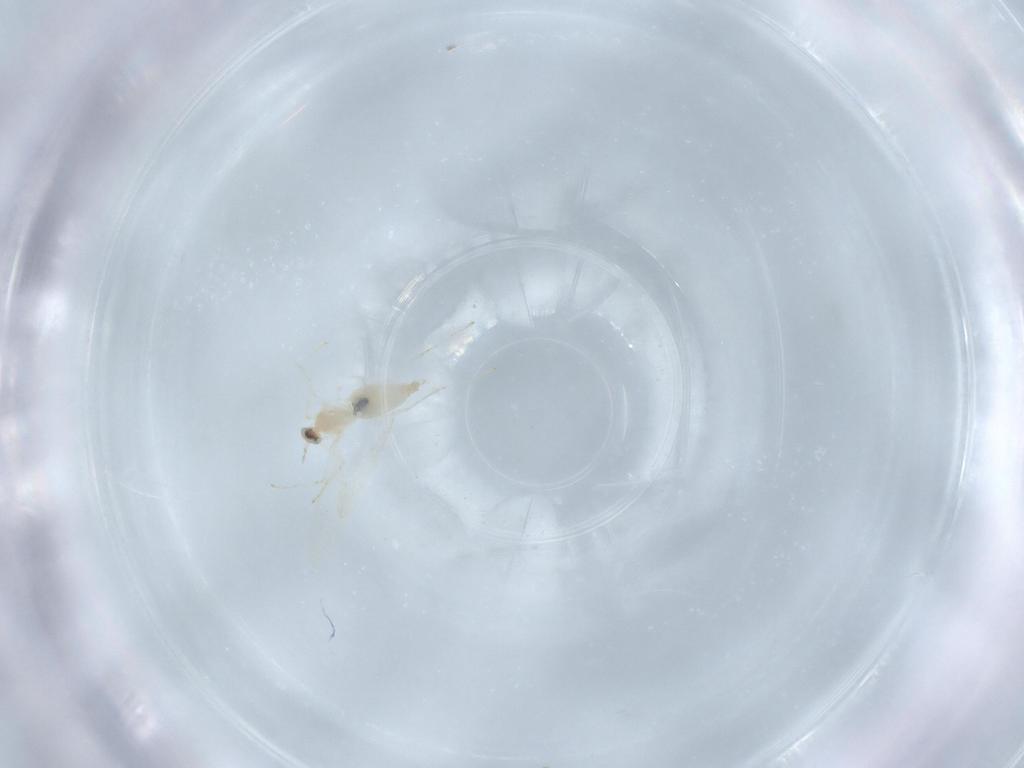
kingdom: Animalia
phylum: Arthropoda
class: Insecta
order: Diptera
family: Cecidomyiidae
